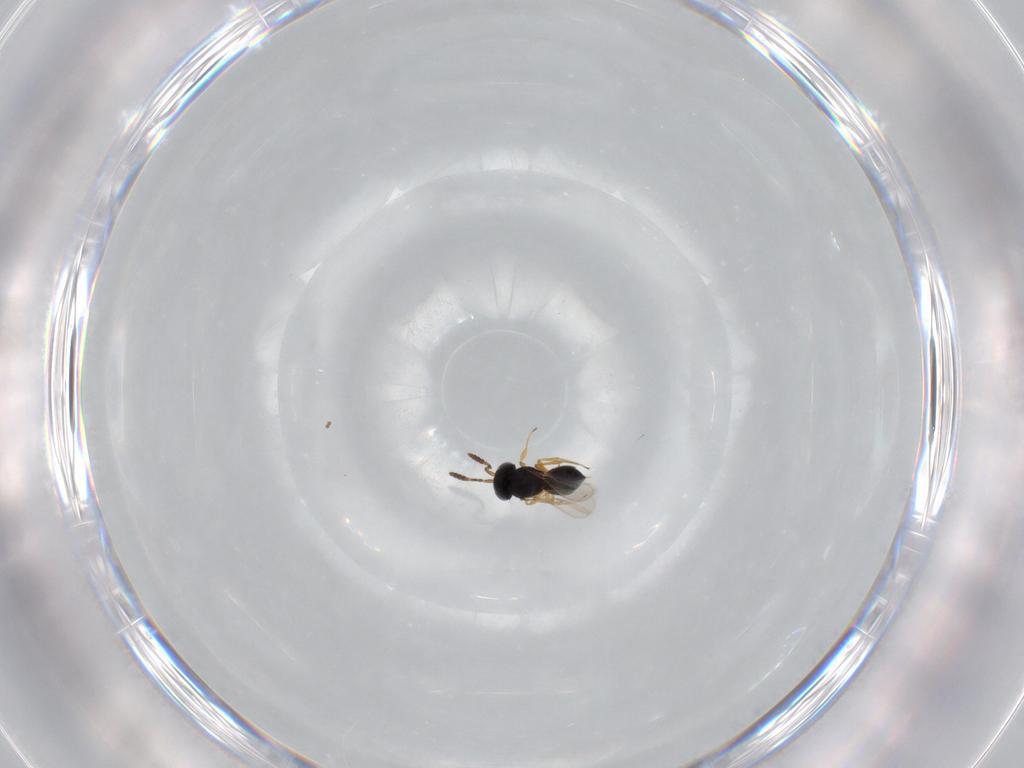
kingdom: Animalia
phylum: Arthropoda
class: Insecta
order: Hymenoptera
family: Scelionidae
